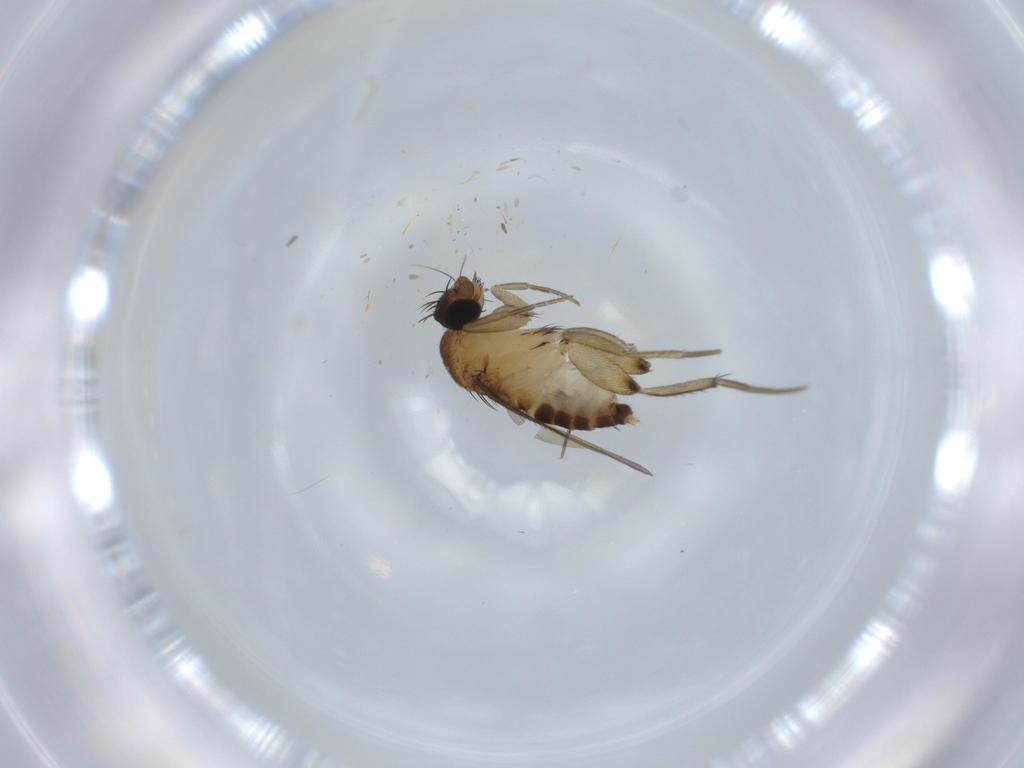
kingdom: Animalia
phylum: Arthropoda
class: Insecta
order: Diptera
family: Phoridae
